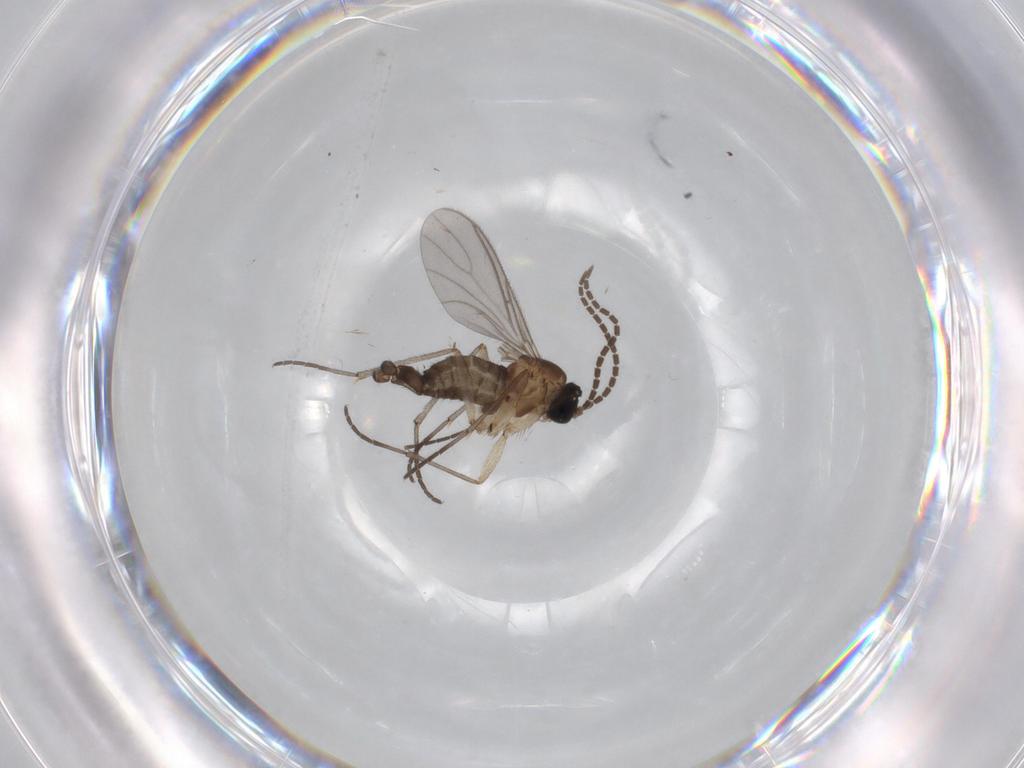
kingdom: Animalia
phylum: Arthropoda
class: Insecta
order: Diptera
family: Sciaridae
